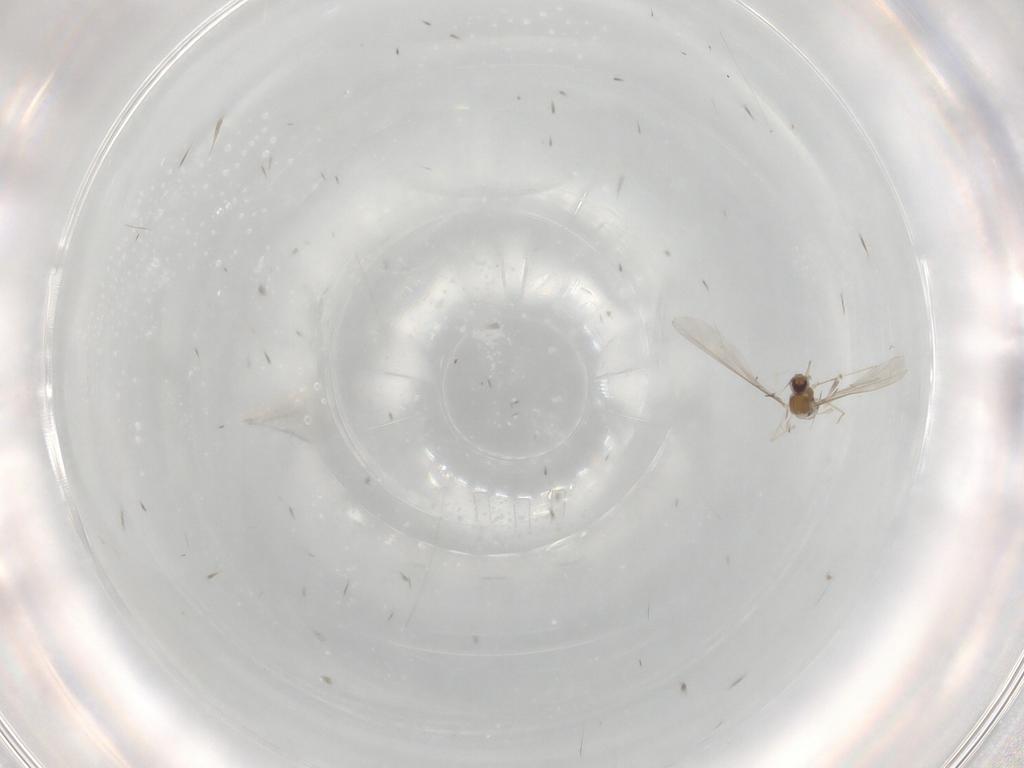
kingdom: Animalia
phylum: Arthropoda
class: Insecta
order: Diptera
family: Cecidomyiidae
